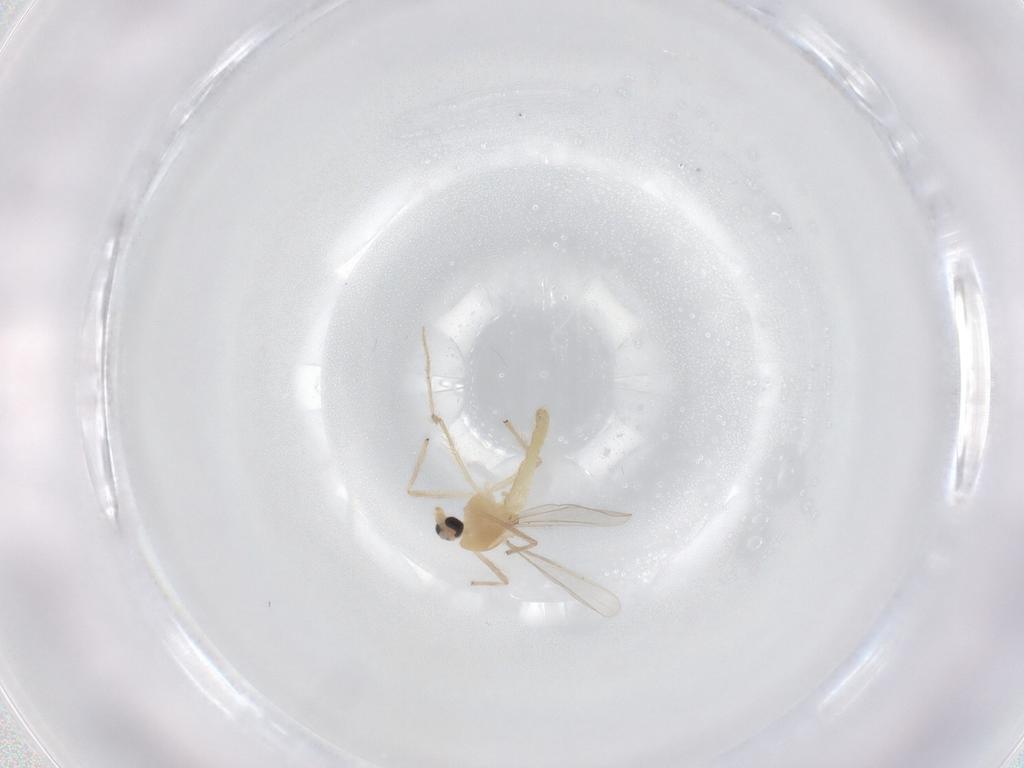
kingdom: Animalia
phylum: Arthropoda
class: Insecta
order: Diptera
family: Chironomidae
